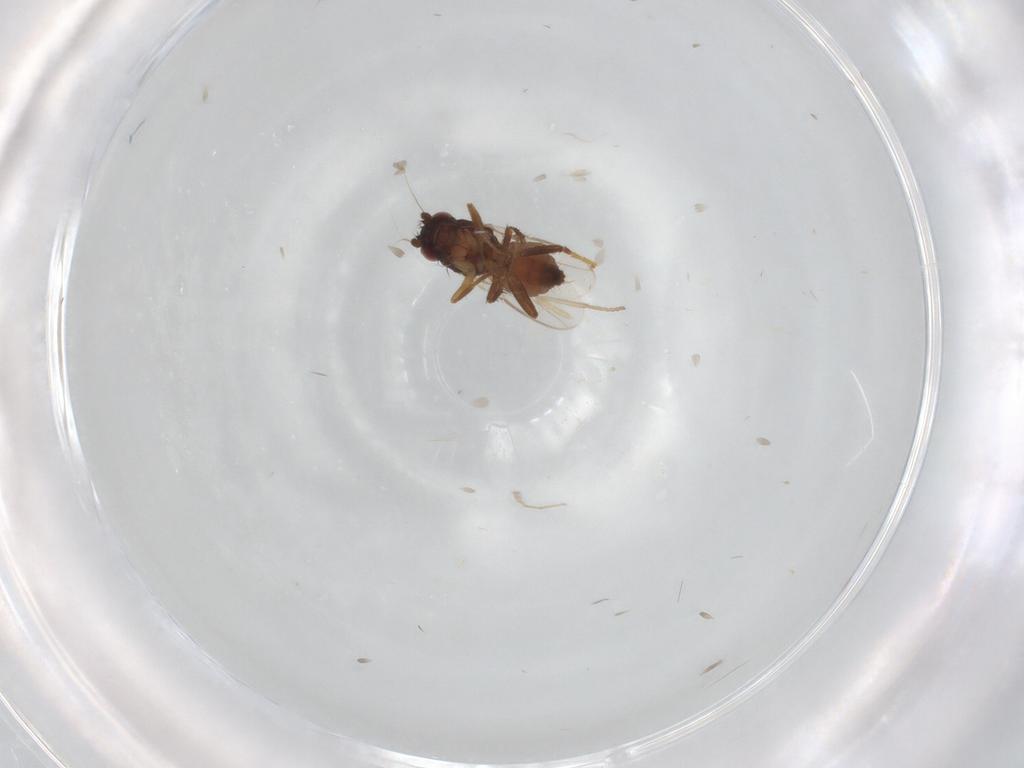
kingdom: Animalia
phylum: Arthropoda
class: Insecta
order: Diptera
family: Sphaeroceridae
